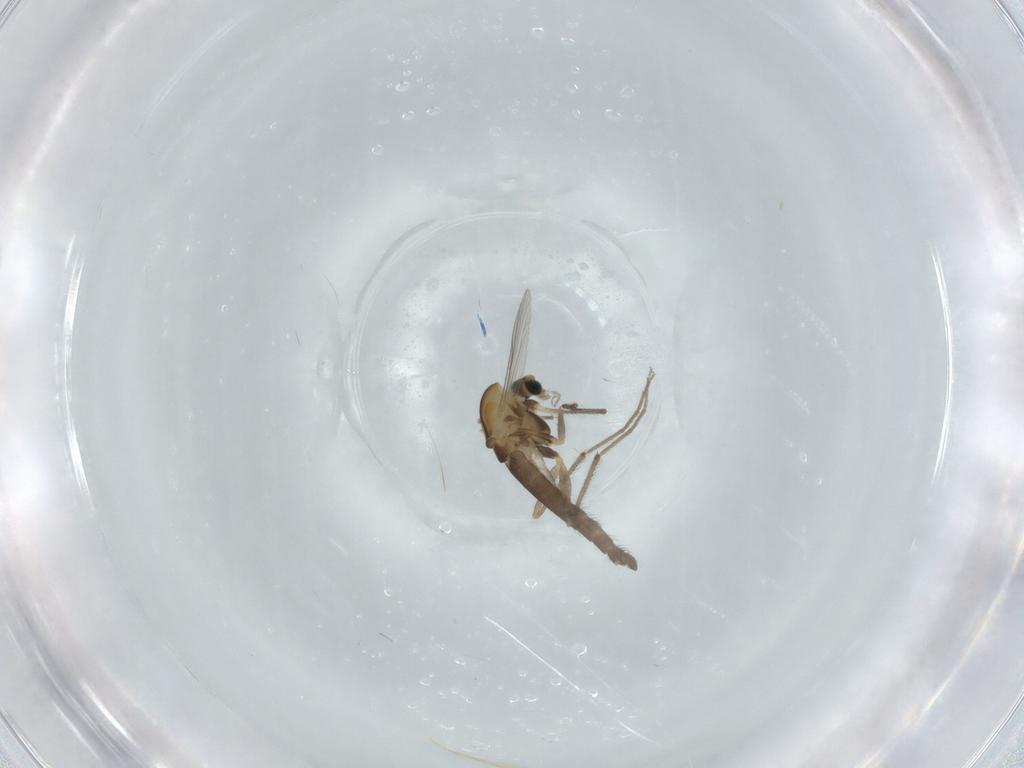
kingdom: Animalia
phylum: Arthropoda
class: Insecta
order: Diptera
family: Chironomidae
